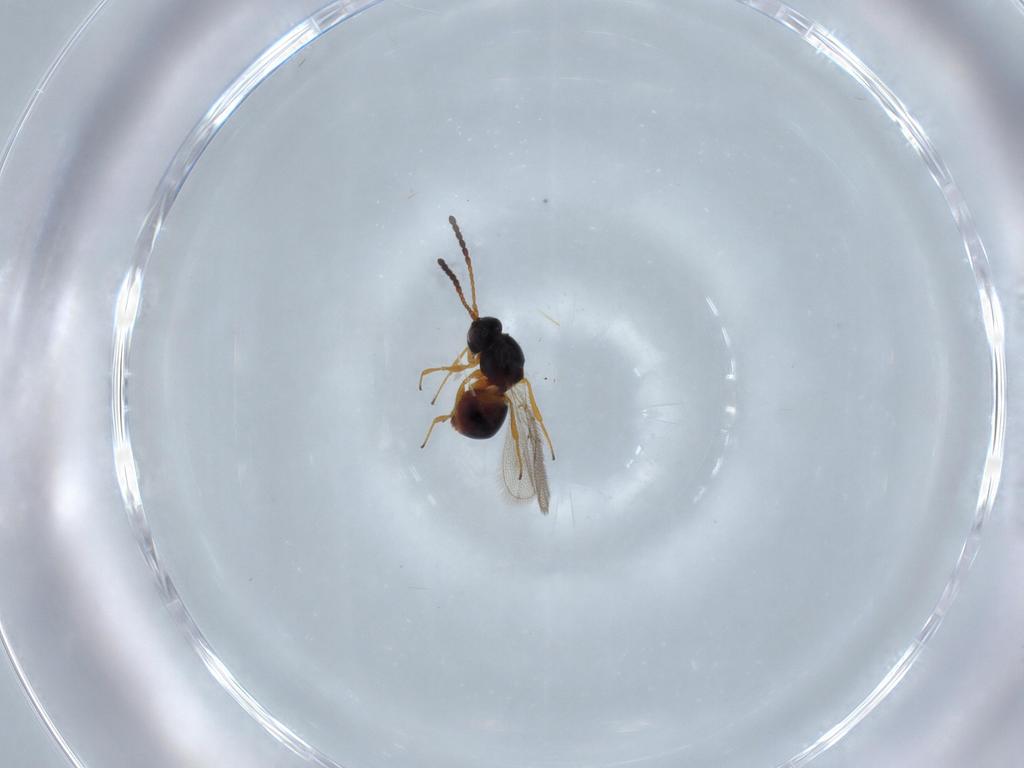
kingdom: Animalia
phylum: Arthropoda
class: Insecta
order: Hymenoptera
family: Figitidae
